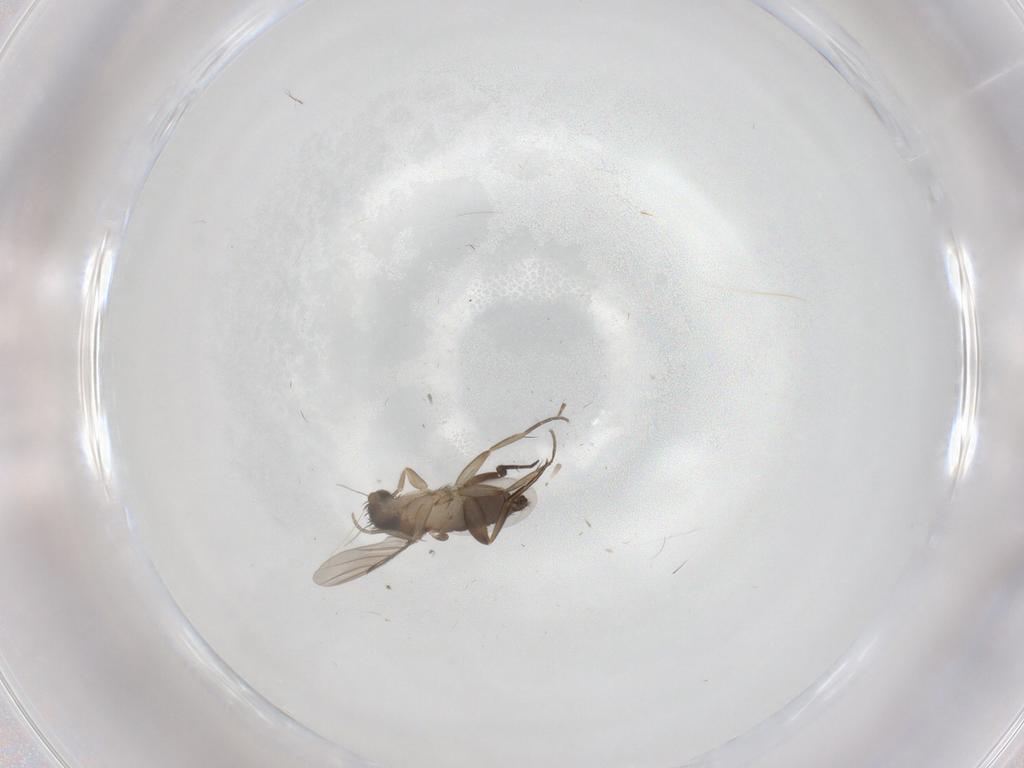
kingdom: Animalia
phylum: Arthropoda
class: Insecta
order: Diptera
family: Phoridae
